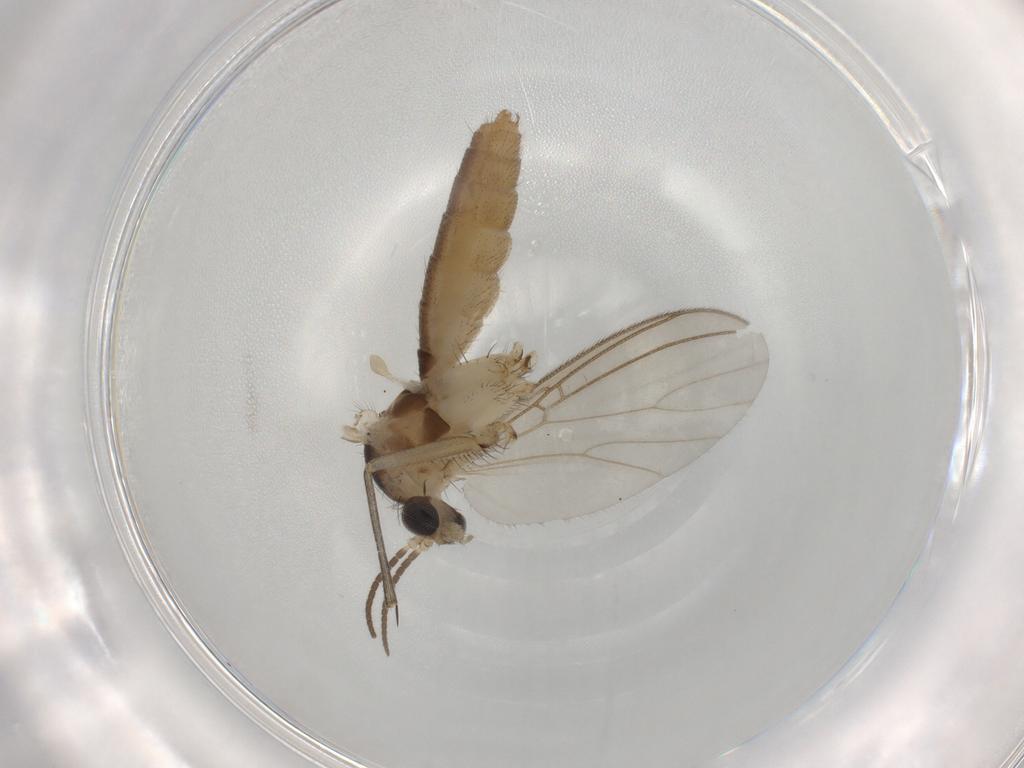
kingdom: Animalia
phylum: Arthropoda
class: Insecta
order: Diptera
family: Mycetophilidae
